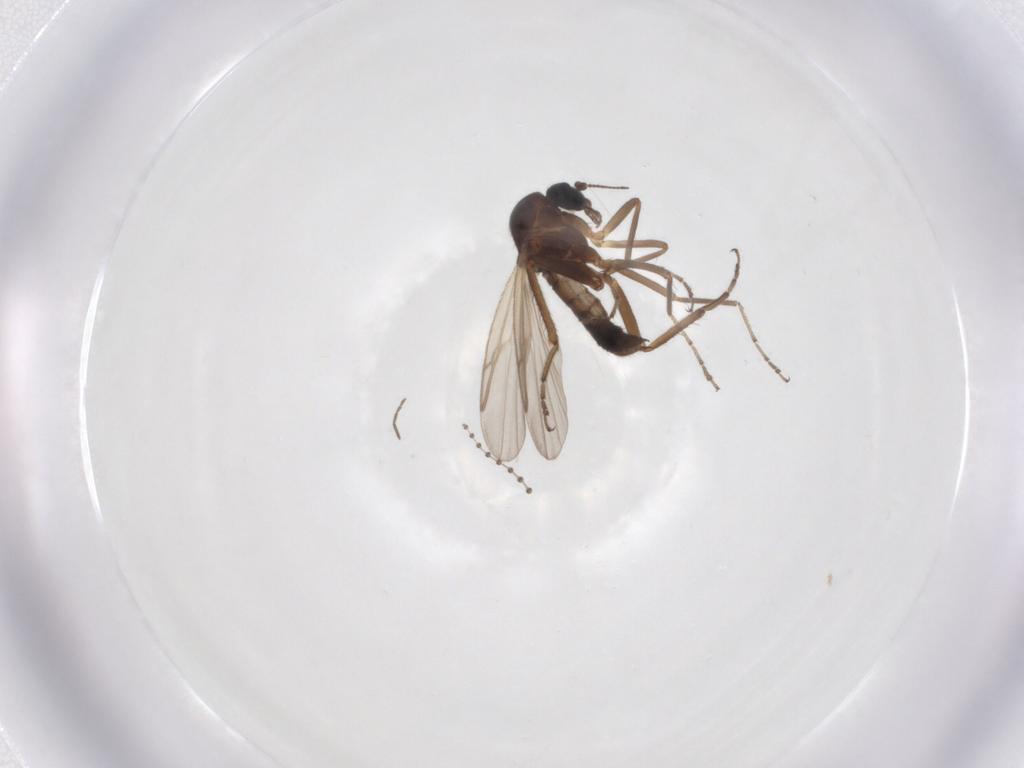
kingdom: Animalia
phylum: Arthropoda
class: Insecta
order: Diptera
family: Ceratopogonidae
